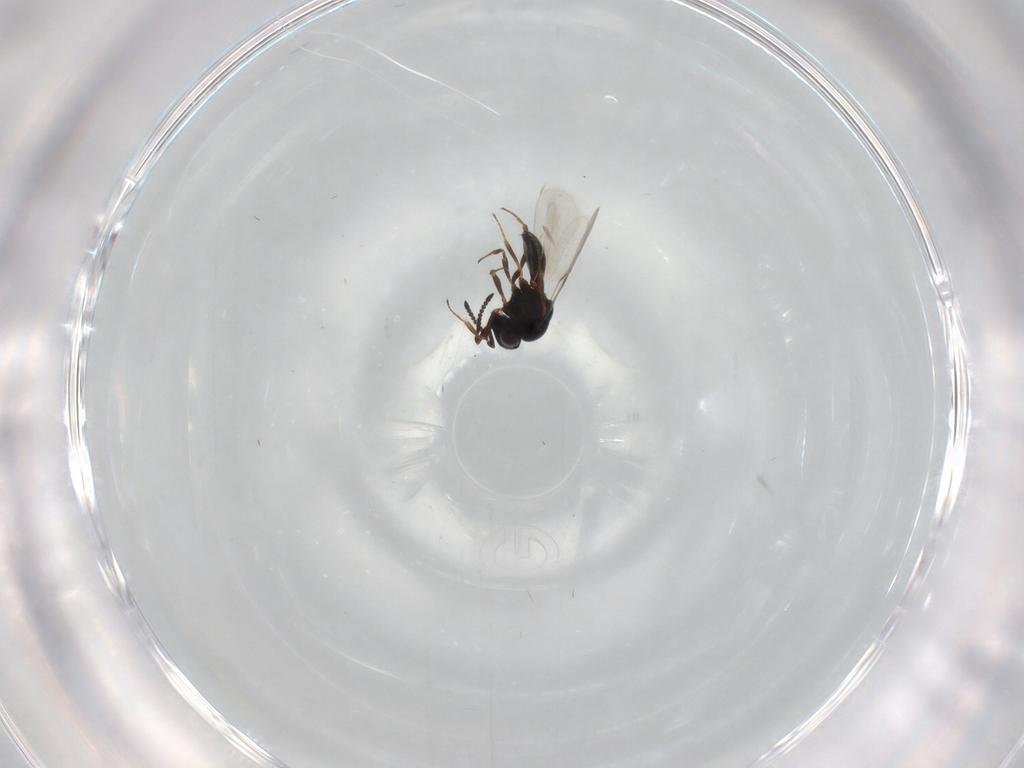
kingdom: Animalia
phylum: Arthropoda
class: Insecta
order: Hymenoptera
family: Scelionidae
